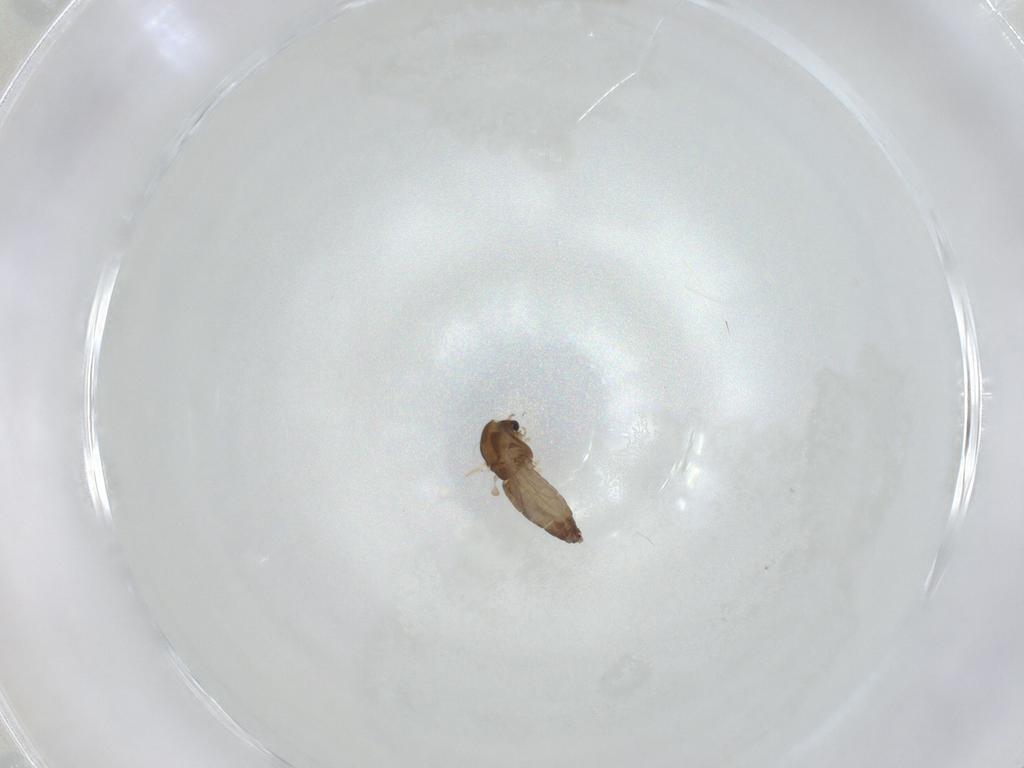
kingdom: Animalia
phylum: Arthropoda
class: Insecta
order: Diptera
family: Chironomidae
